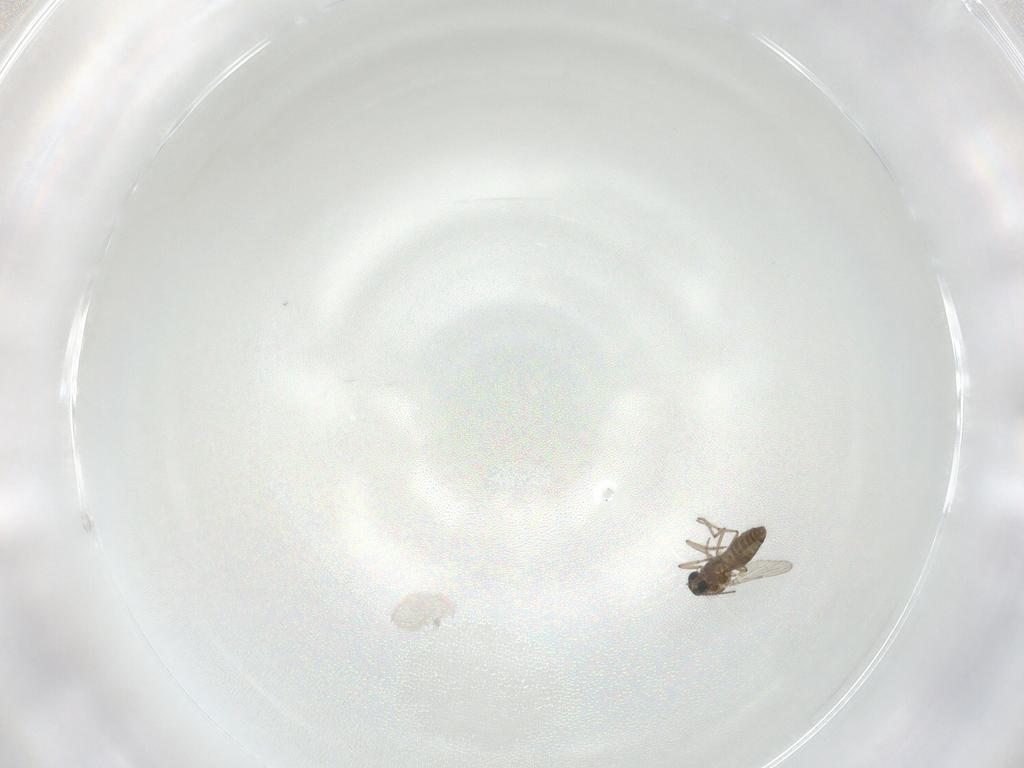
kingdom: Animalia
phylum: Arthropoda
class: Insecta
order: Diptera
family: Ceratopogonidae
